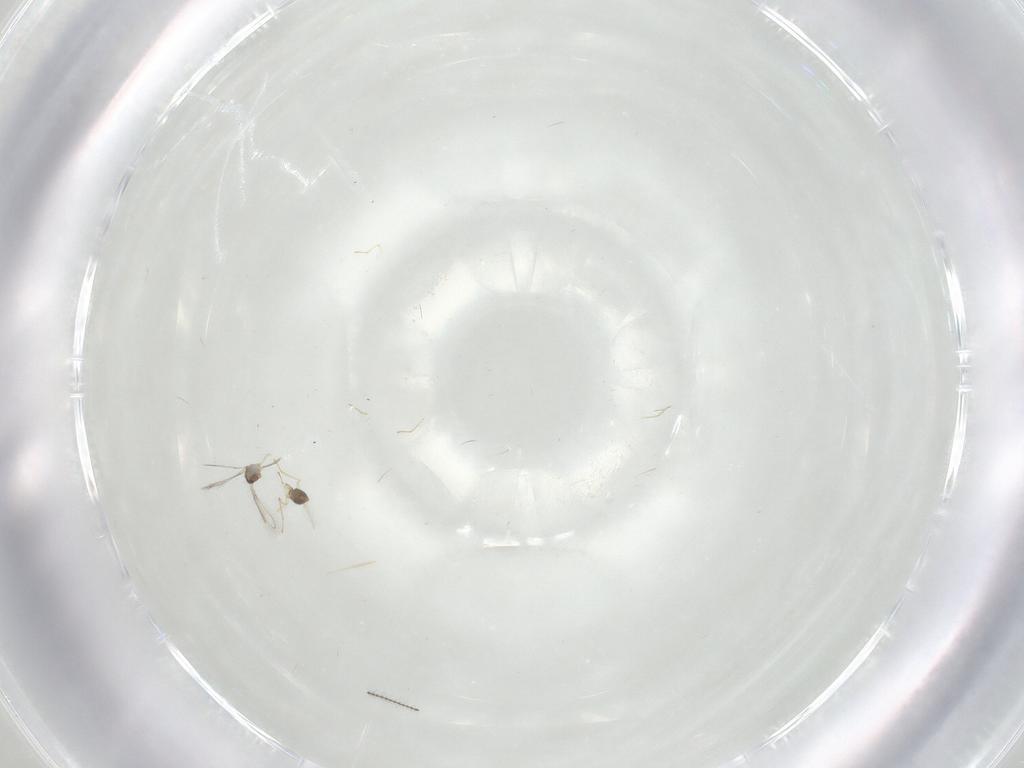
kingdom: Animalia
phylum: Arthropoda
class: Insecta
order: Hymenoptera
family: Mymaridae
